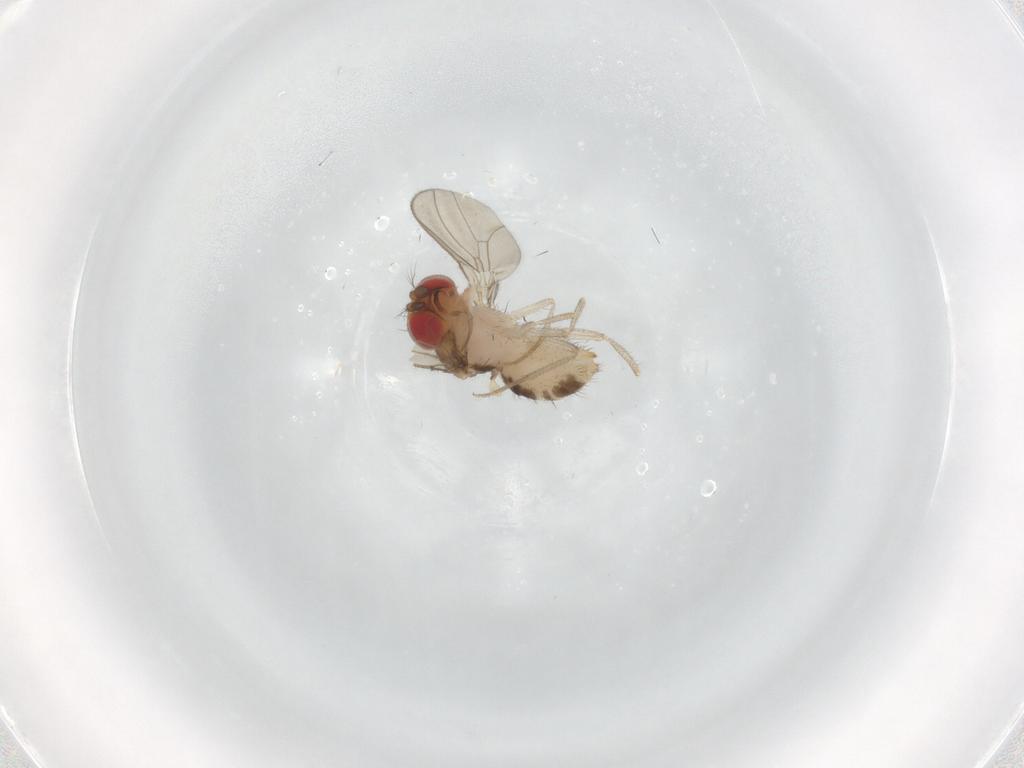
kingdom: Animalia
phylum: Arthropoda
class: Insecta
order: Diptera
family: Drosophilidae
